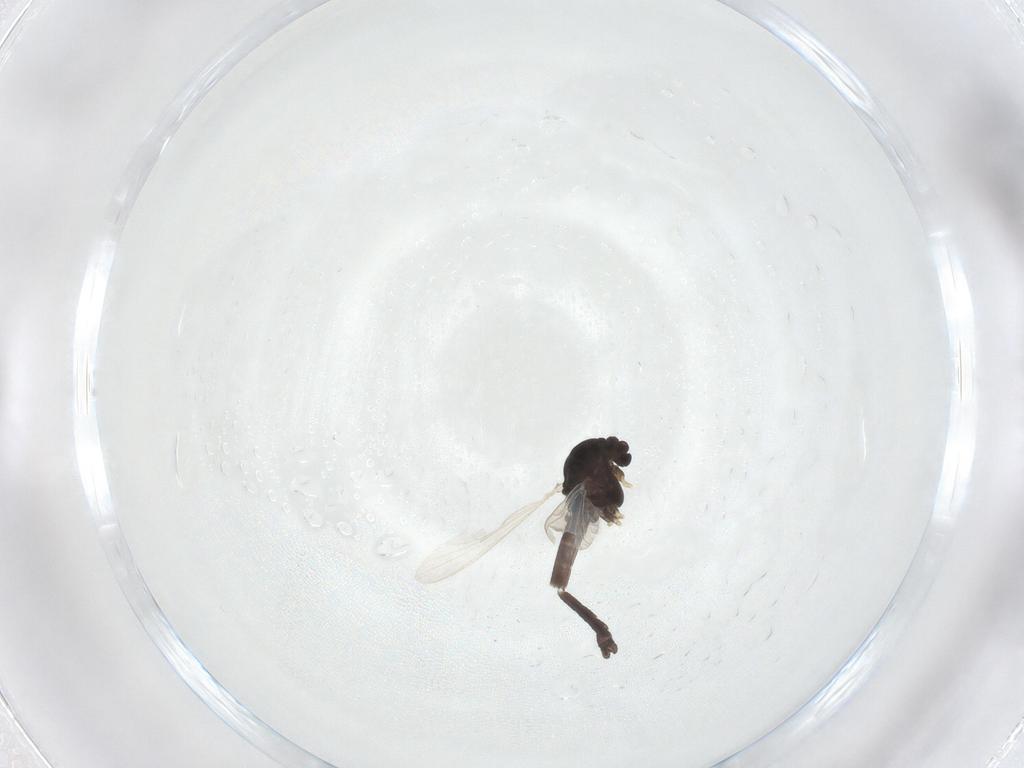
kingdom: Animalia
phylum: Arthropoda
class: Insecta
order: Diptera
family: Chironomidae
